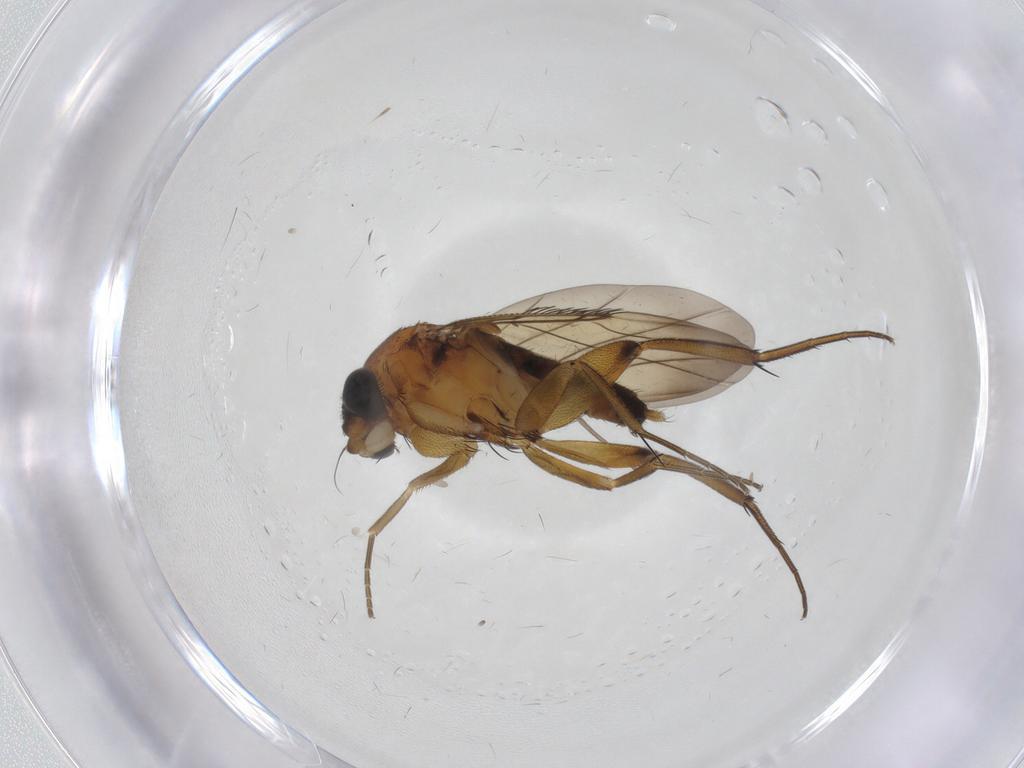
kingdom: Animalia
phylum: Arthropoda
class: Insecta
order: Diptera
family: Phoridae
